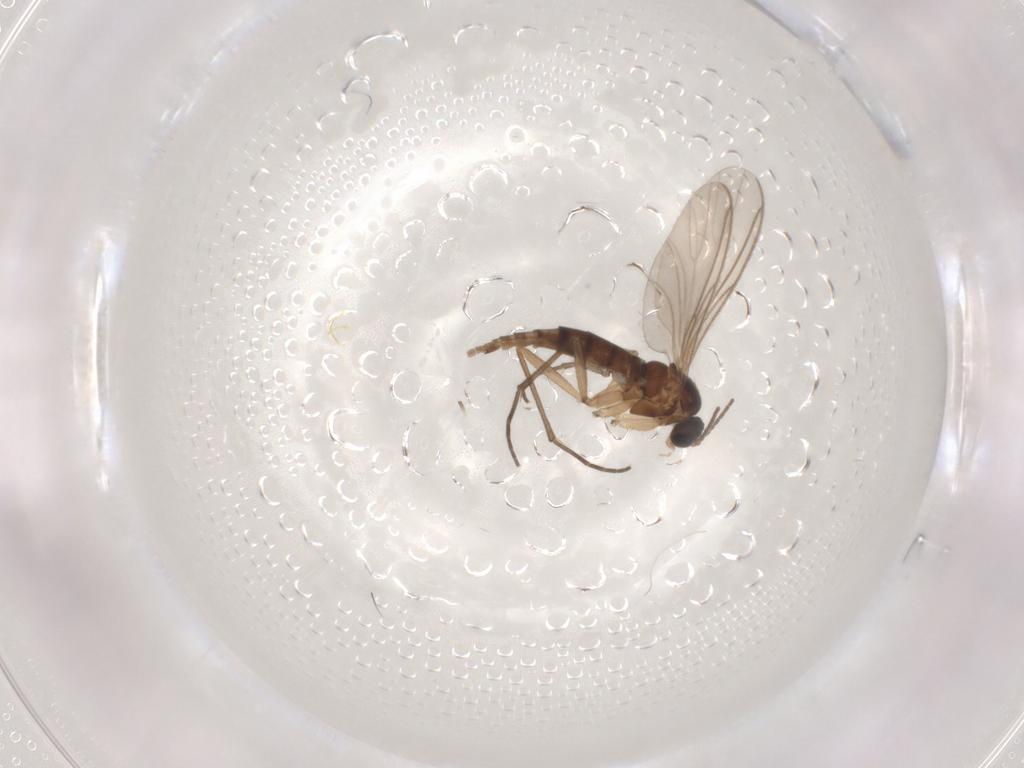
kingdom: Animalia
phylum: Arthropoda
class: Insecta
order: Diptera
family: Sciaridae
